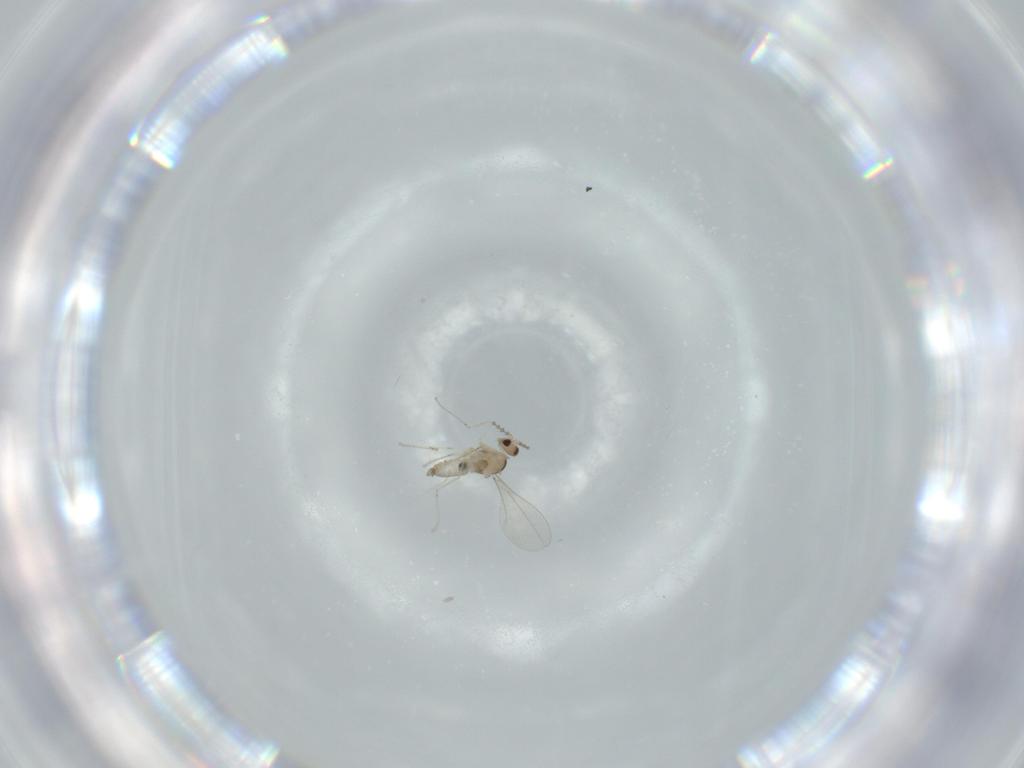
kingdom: Animalia
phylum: Arthropoda
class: Insecta
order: Diptera
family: Cecidomyiidae
